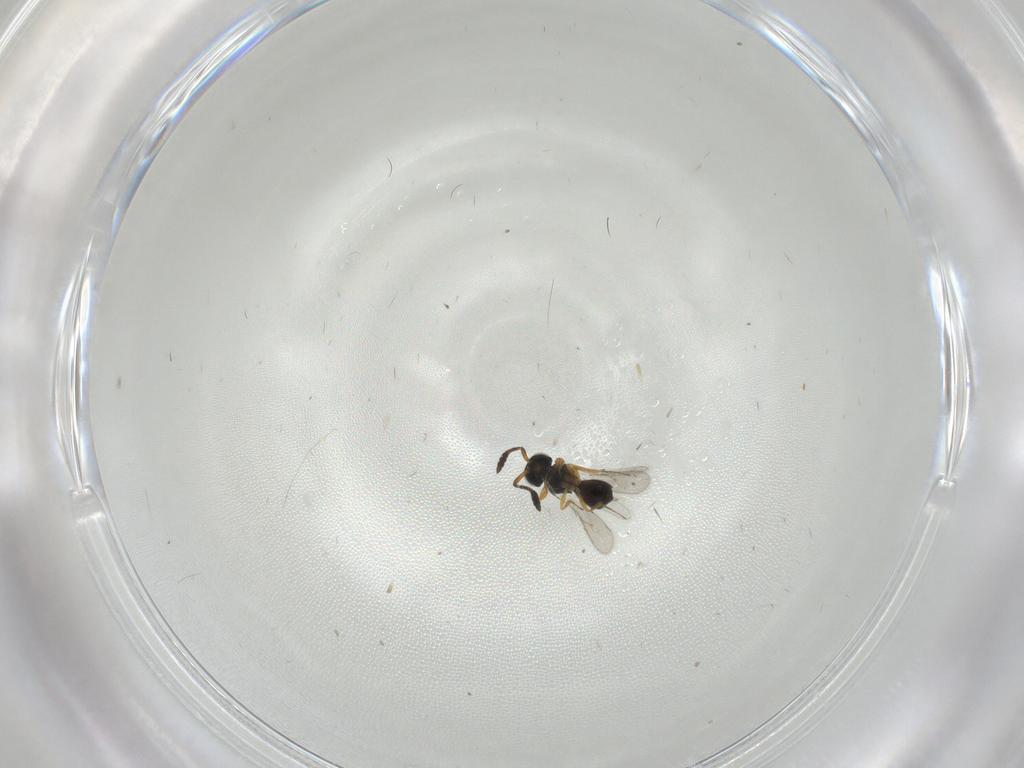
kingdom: Animalia
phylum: Arthropoda
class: Insecta
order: Hymenoptera
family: Scelionidae
